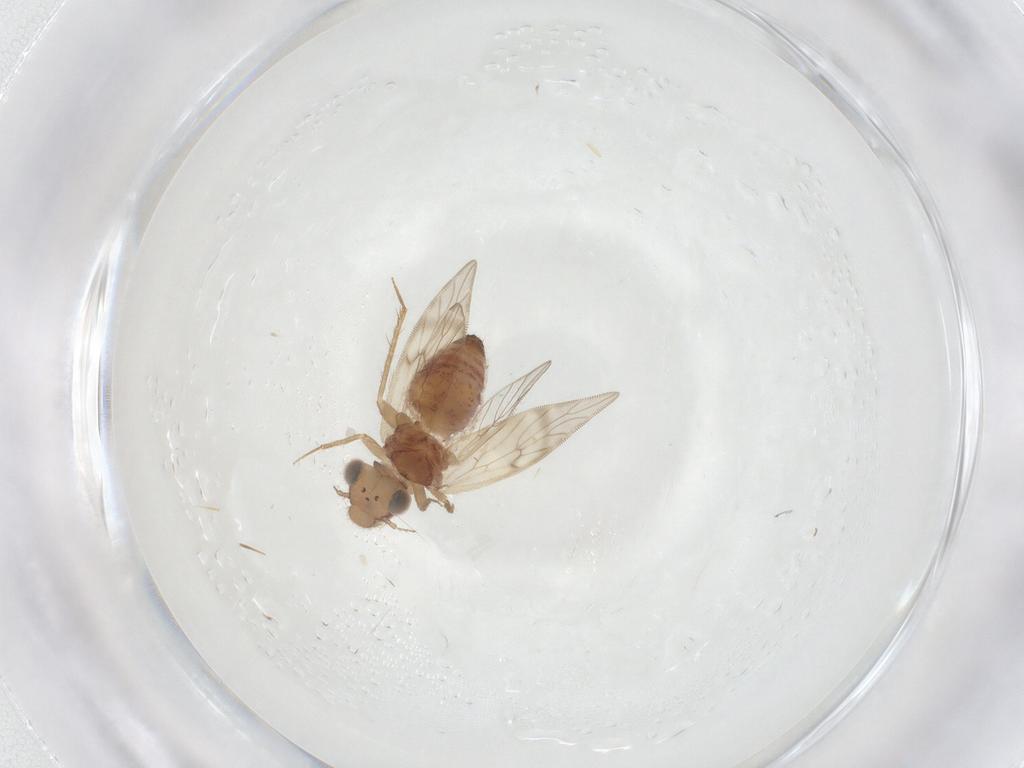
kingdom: Animalia
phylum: Arthropoda
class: Insecta
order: Psocodea
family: Lepidopsocidae
